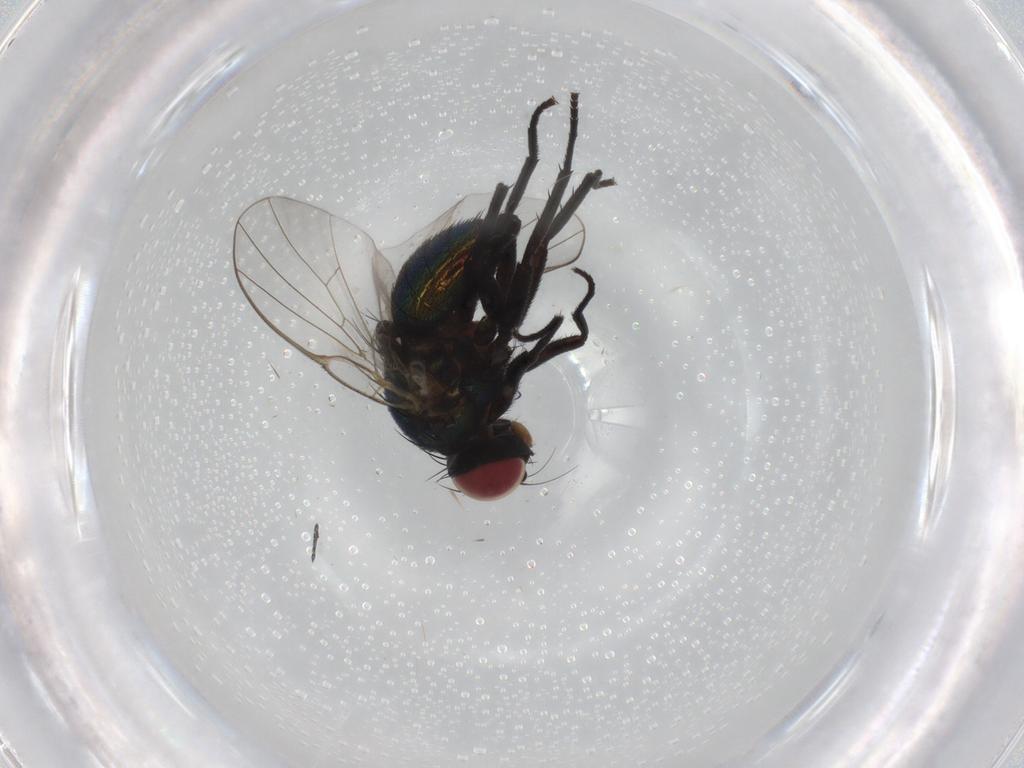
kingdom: Animalia
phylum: Arthropoda
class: Insecta
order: Diptera
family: Agromyzidae
